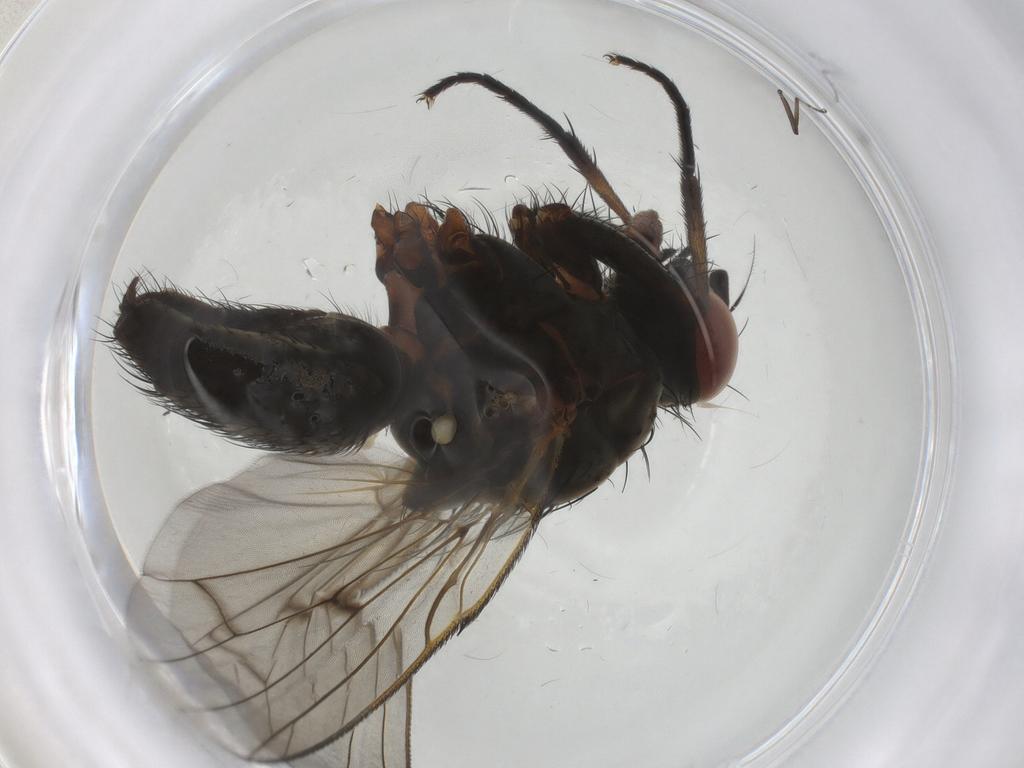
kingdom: Animalia
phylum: Arthropoda
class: Insecta
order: Diptera
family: Anthomyiidae
